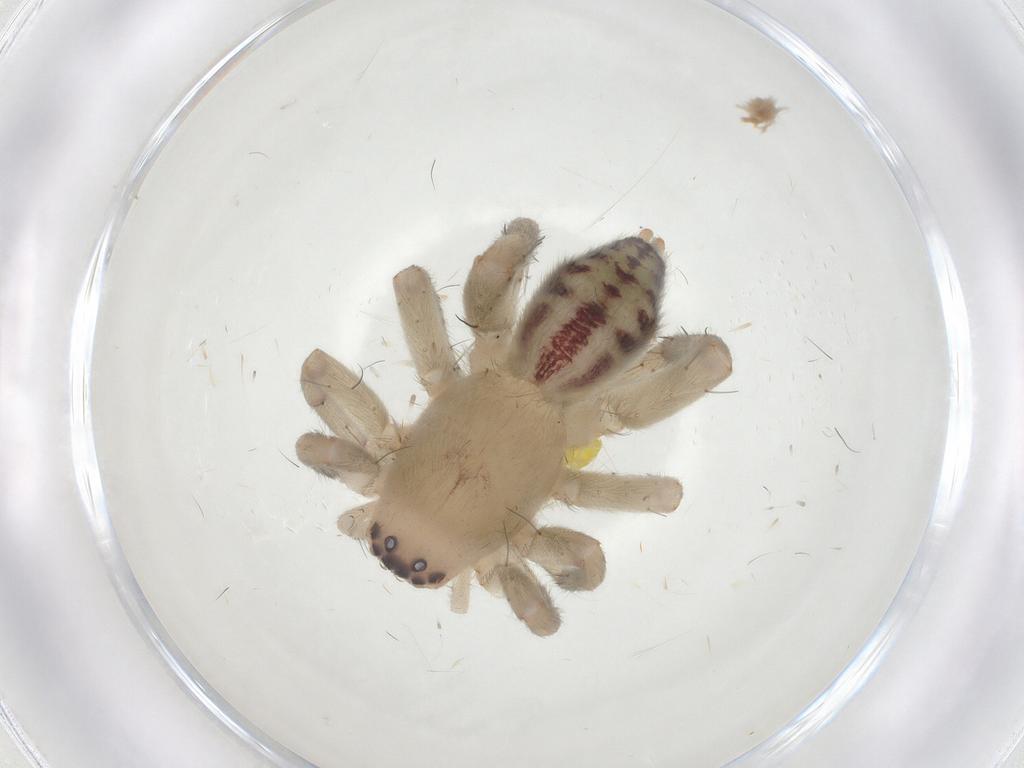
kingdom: Animalia
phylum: Arthropoda
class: Arachnida
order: Araneae
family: Clubionidae
